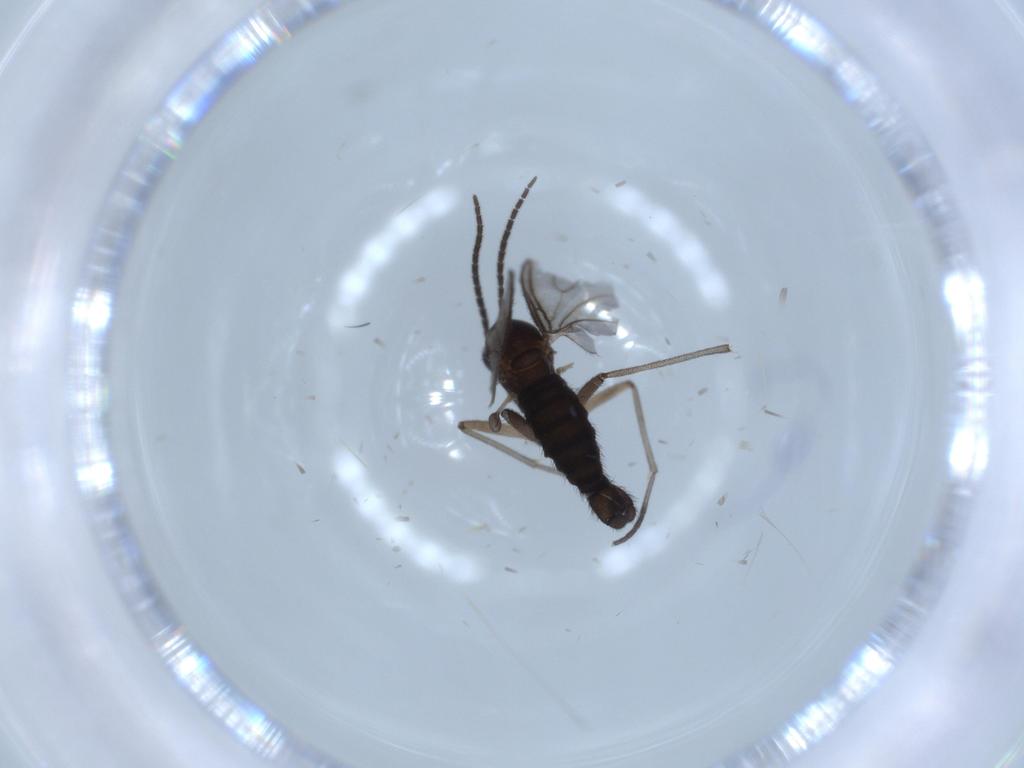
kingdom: Animalia
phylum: Arthropoda
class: Insecta
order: Diptera
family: Sciaridae
